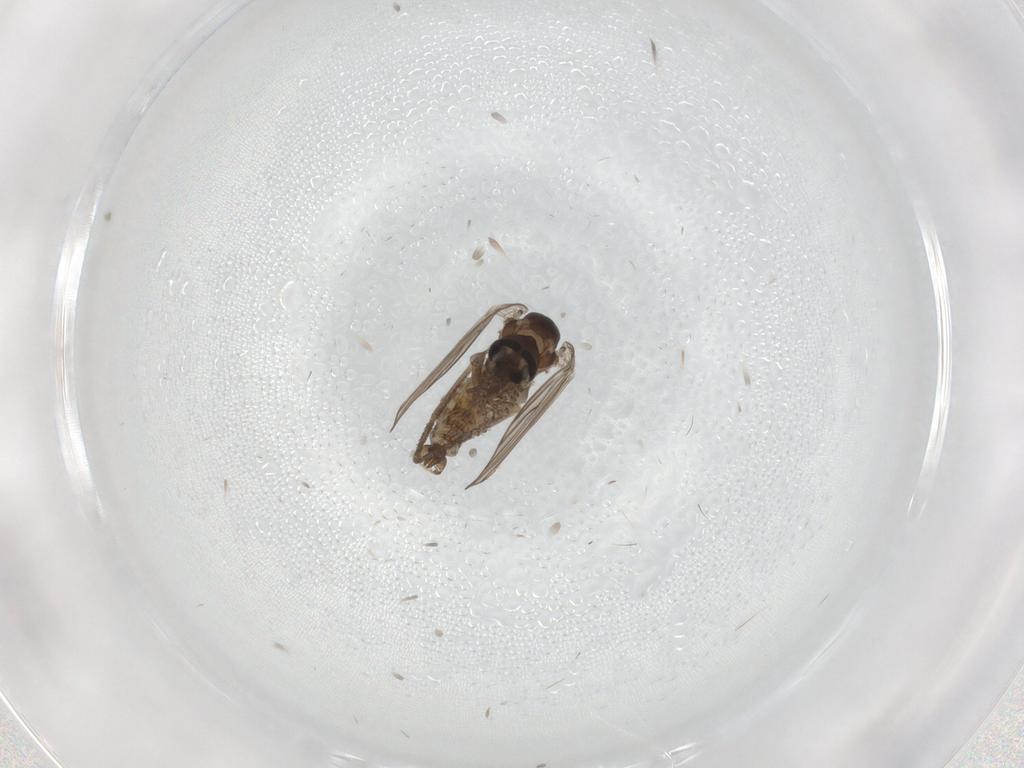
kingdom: Animalia
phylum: Arthropoda
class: Insecta
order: Diptera
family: Psychodidae
